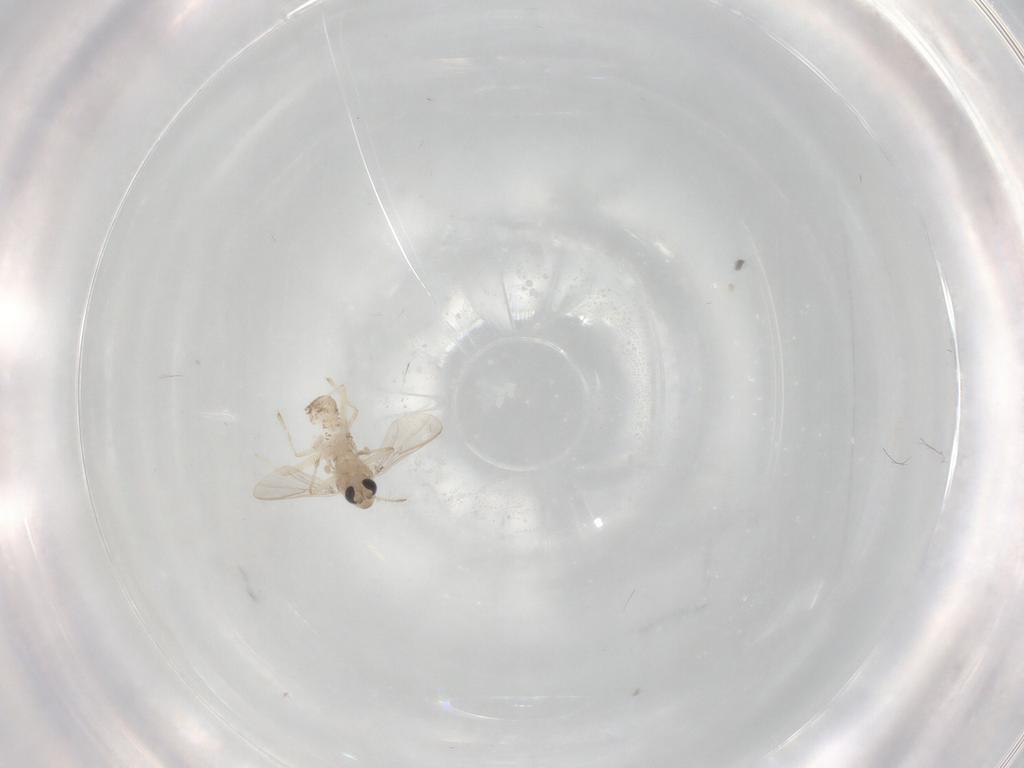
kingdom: Animalia
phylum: Arthropoda
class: Insecta
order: Diptera
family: Chironomidae
